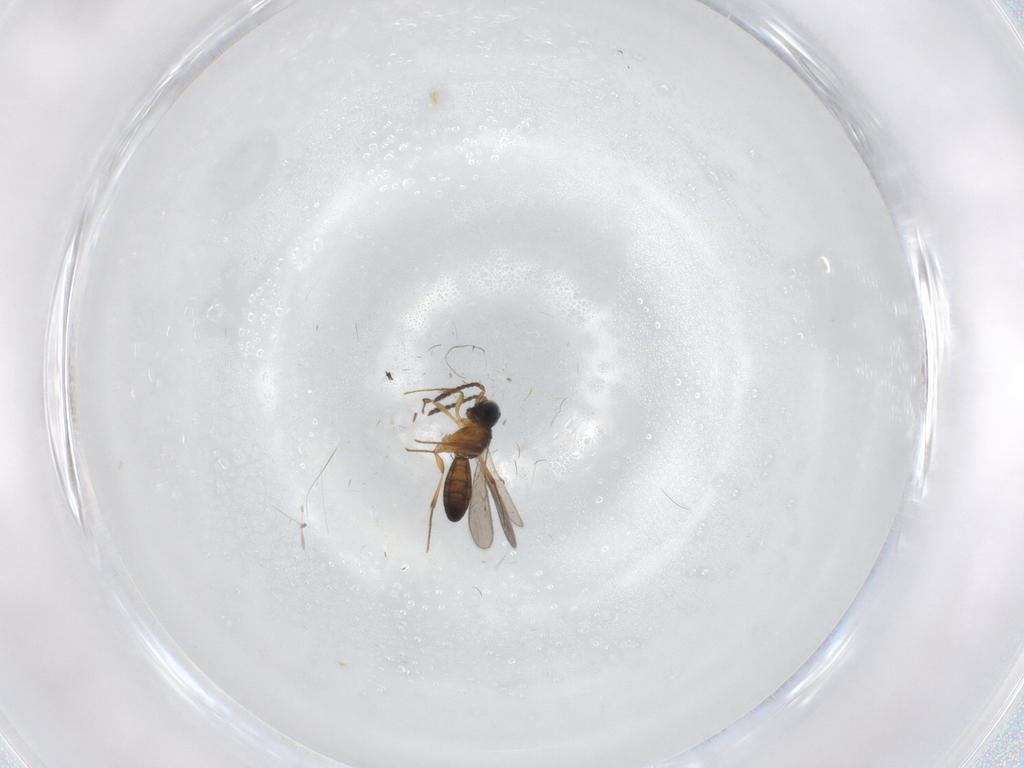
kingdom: Animalia
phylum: Arthropoda
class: Insecta
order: Hymenoptera
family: Scelionidae
